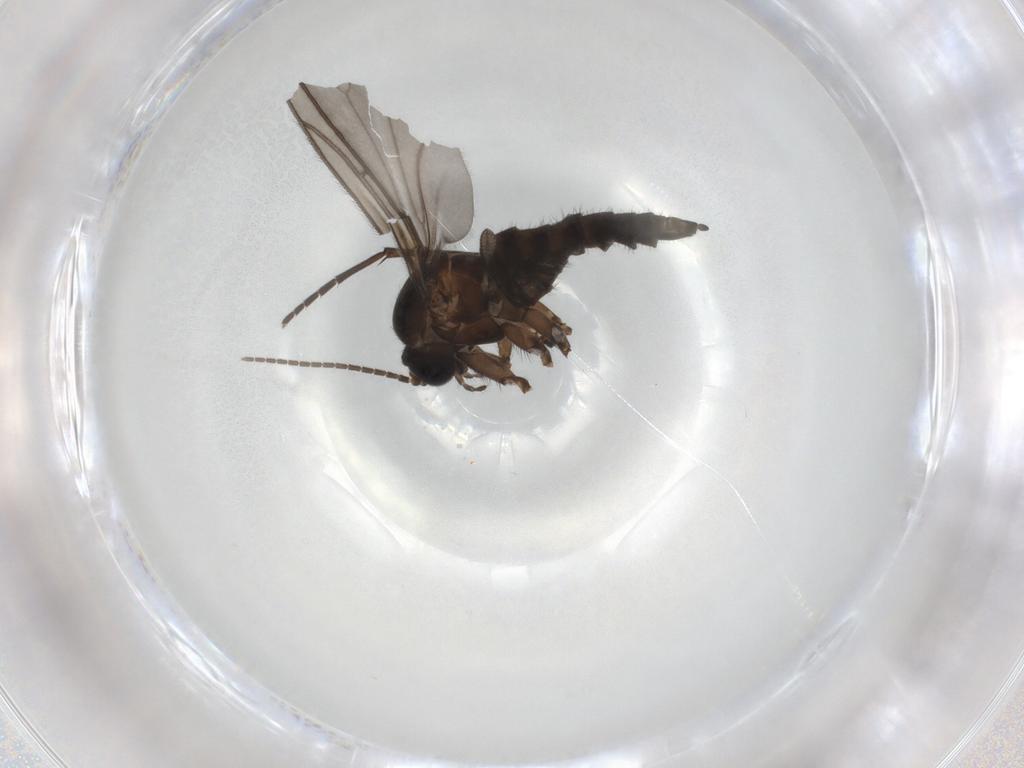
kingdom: Animalia
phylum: Arthropoda
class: Insecta
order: Diptera
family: Sciaridae
